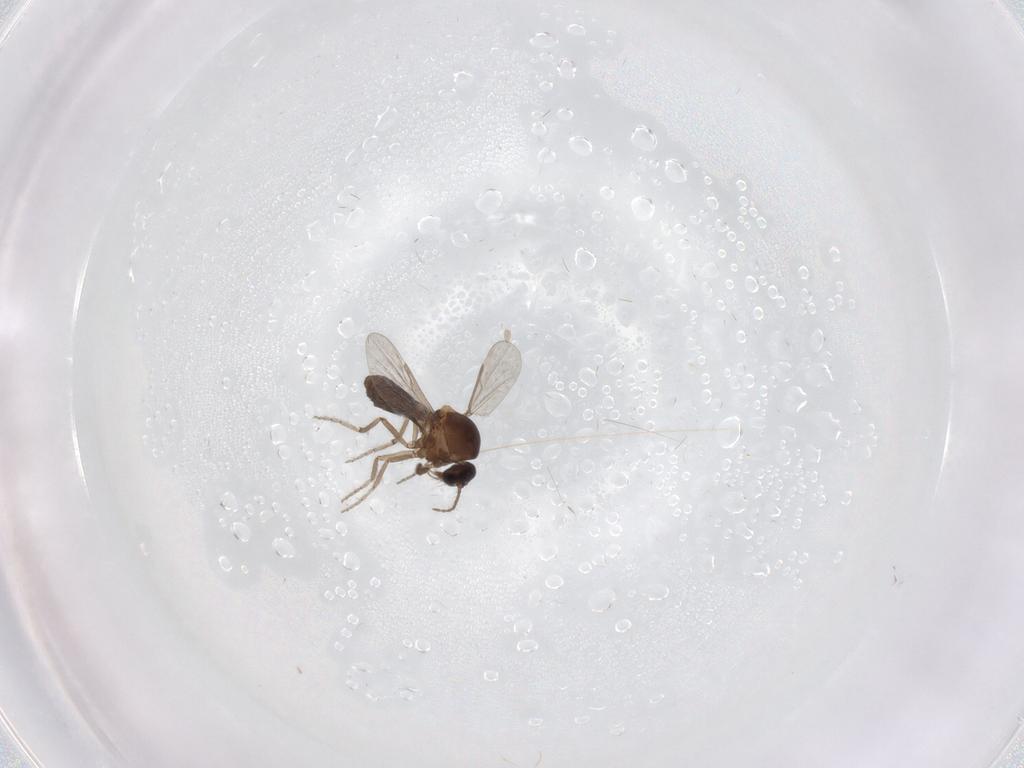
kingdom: Animalia
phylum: Arthropoda
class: Insecta
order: Diptera
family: Ceratopogonidae
